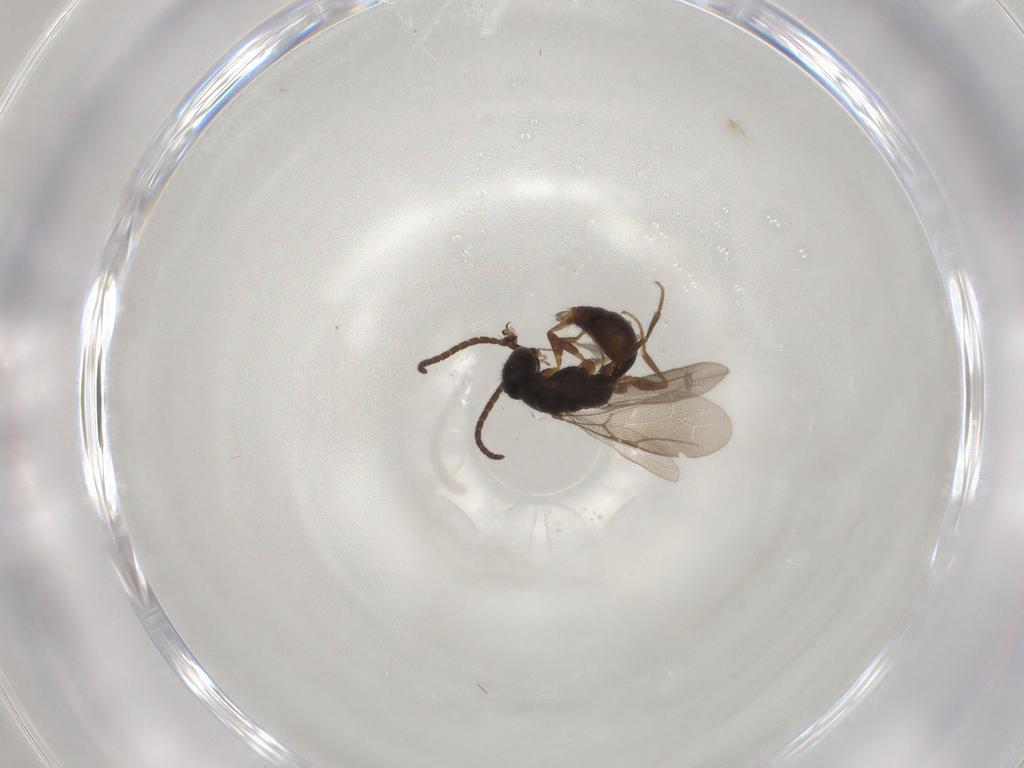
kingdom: Animalia
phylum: Arthropoda
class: Insecta
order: Hymenoptera
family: Bethylidae
